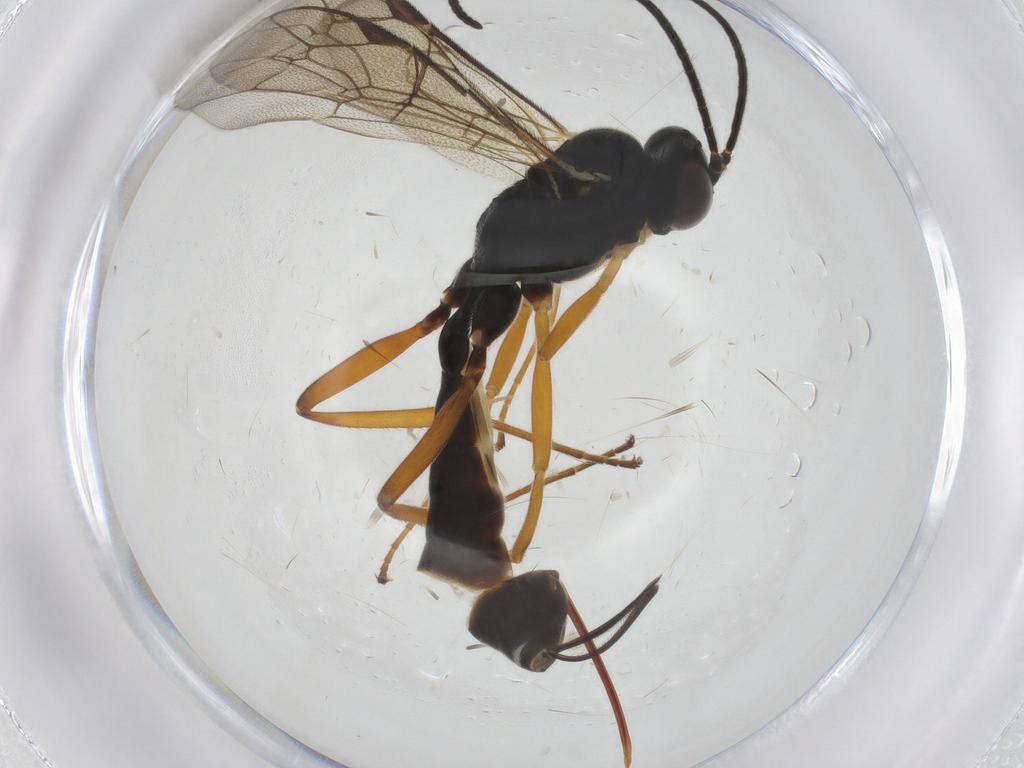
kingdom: Animalia
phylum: Arthropoda
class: Insecta
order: Hymenoptera
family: Ichneumonidae
